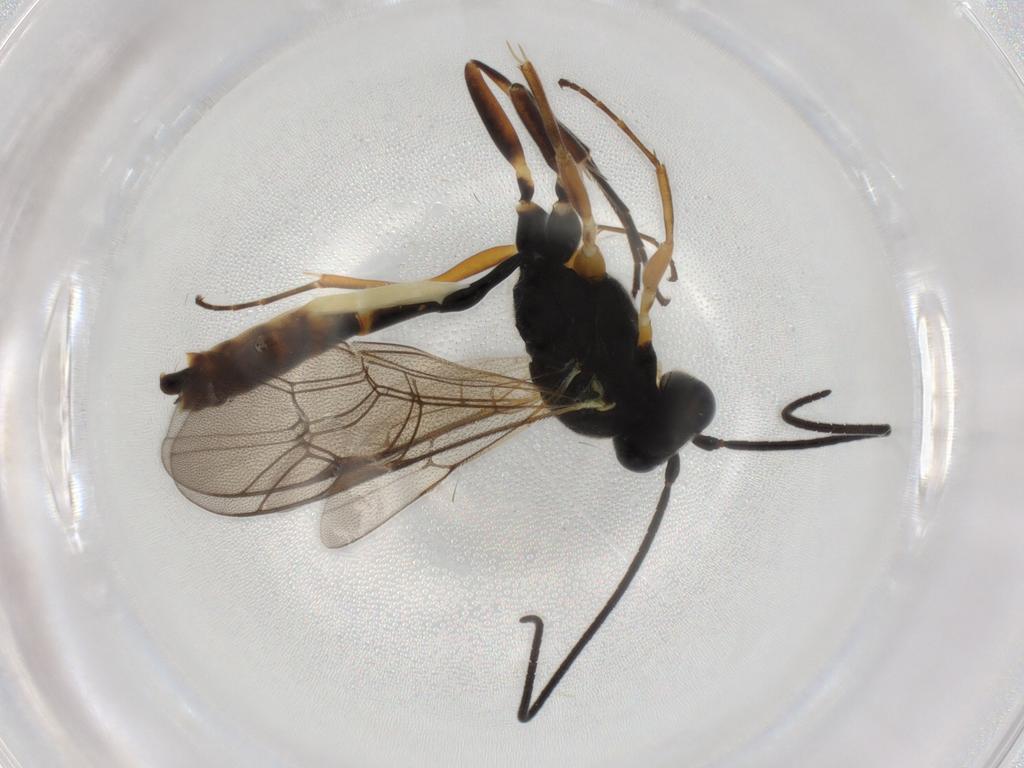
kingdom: Animalia
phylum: Arthropoda
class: Insecta
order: Hymenoptera
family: Ichneumonidae
